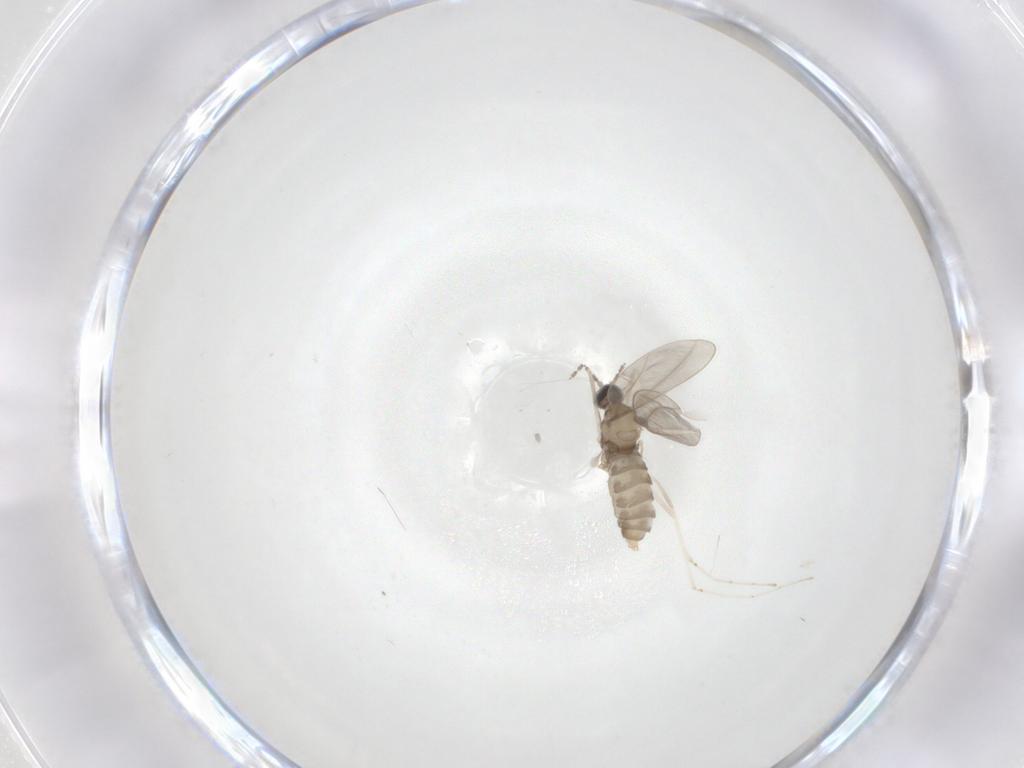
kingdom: Animalia
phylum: Arthropoda
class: Insecta
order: Diptera
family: Cecidomyiidae
